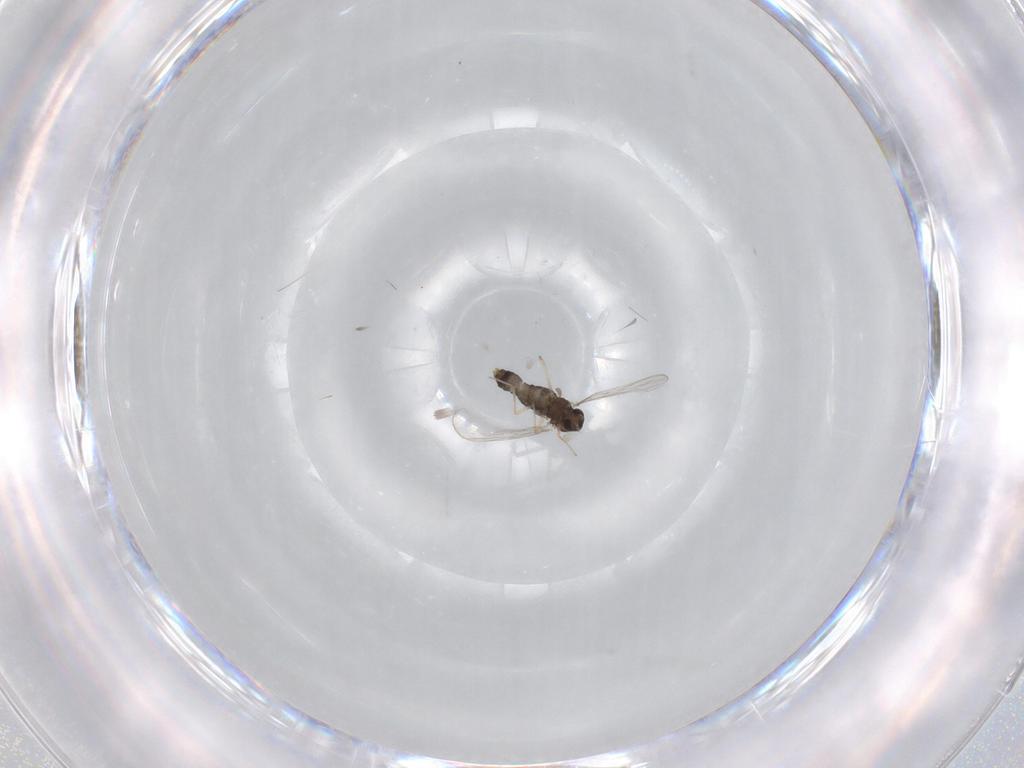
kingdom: Animalia
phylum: Arthropoda
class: Insecta
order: Diptera
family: Chironomidae
